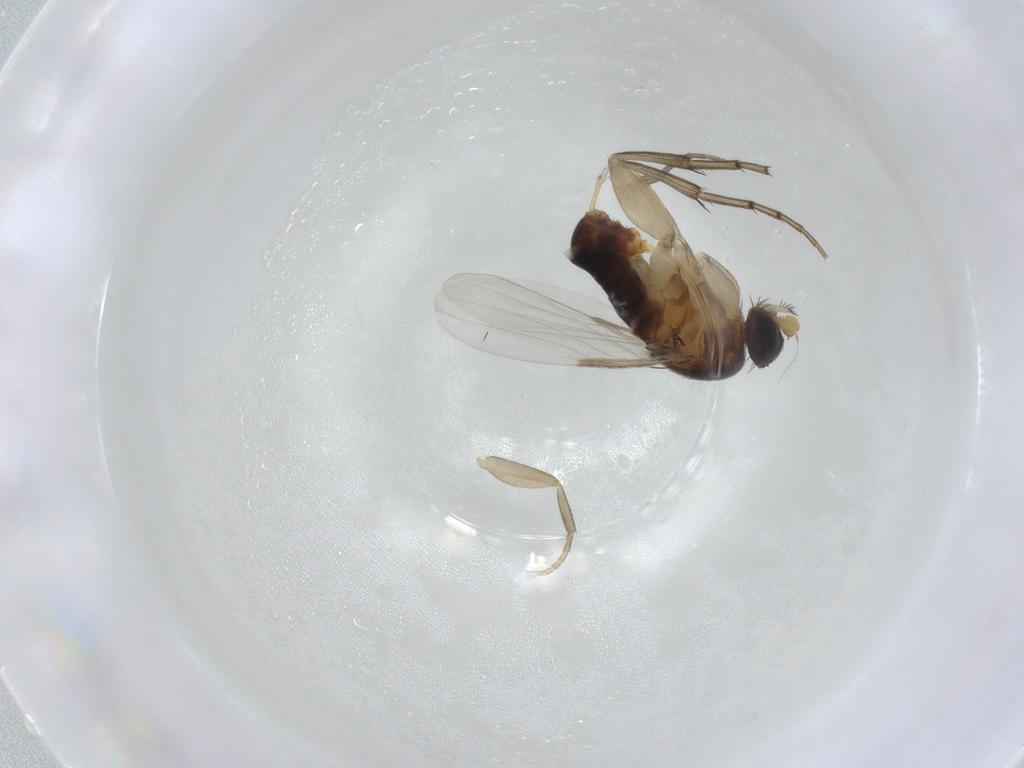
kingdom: Animalia
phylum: Arthropoda
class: Insecta
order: Diptera
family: Phoridae
